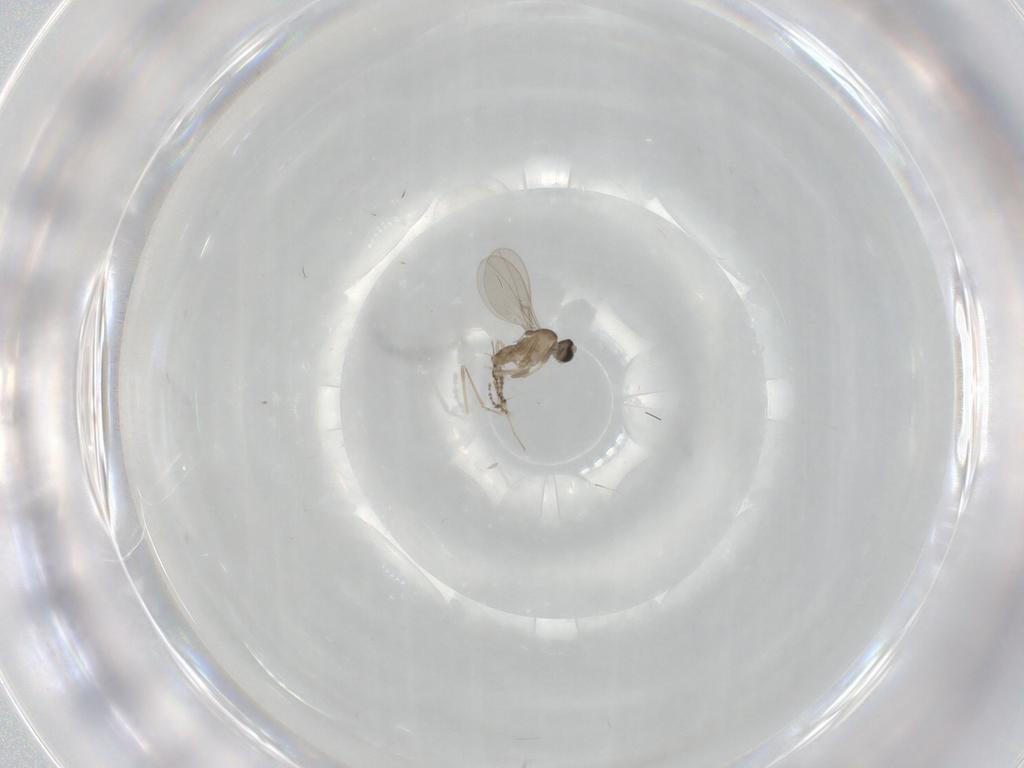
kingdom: Animalia
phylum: Arthropoda
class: Insecta
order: Diptera
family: Cecidomyiidae
